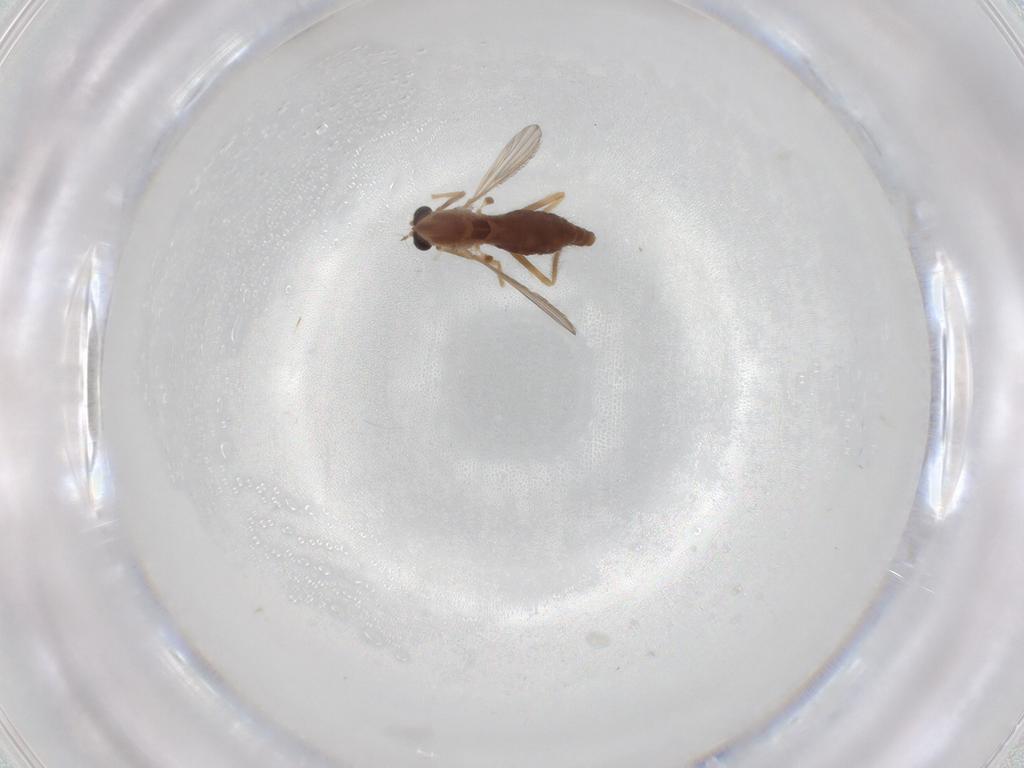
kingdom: Animalia
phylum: Arthropoda
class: Insecta
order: Diptera
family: Chironomidae
